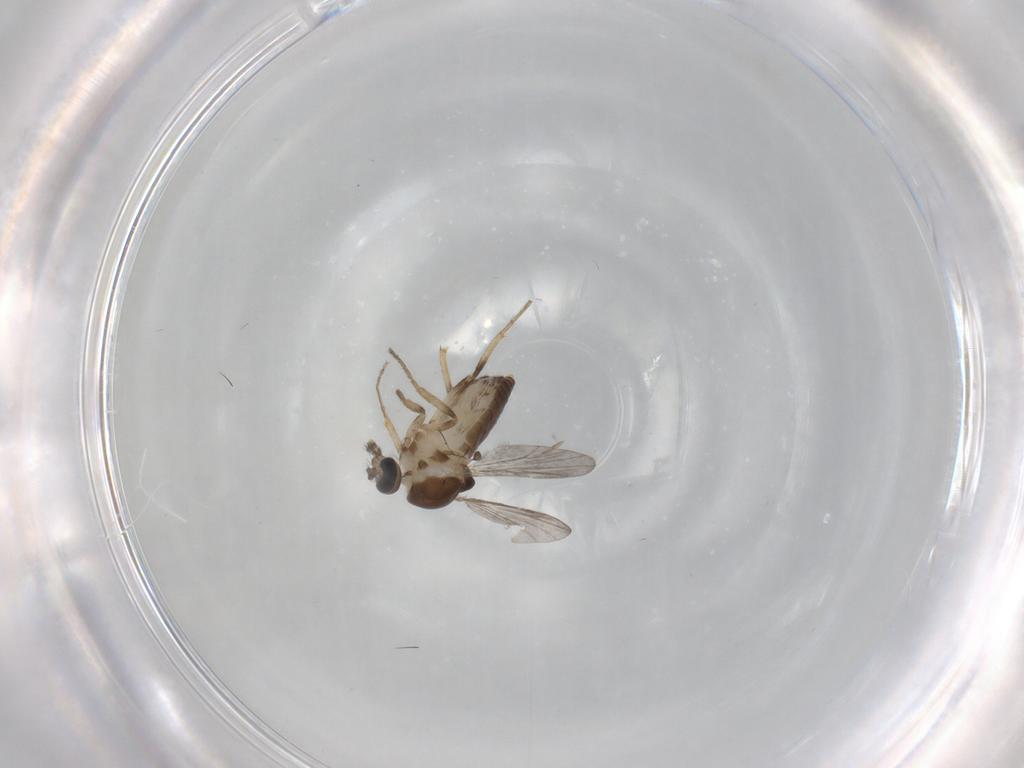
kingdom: Animalia
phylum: Arthropoda
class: Insecta
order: Diptera
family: Ceratopogonidae
